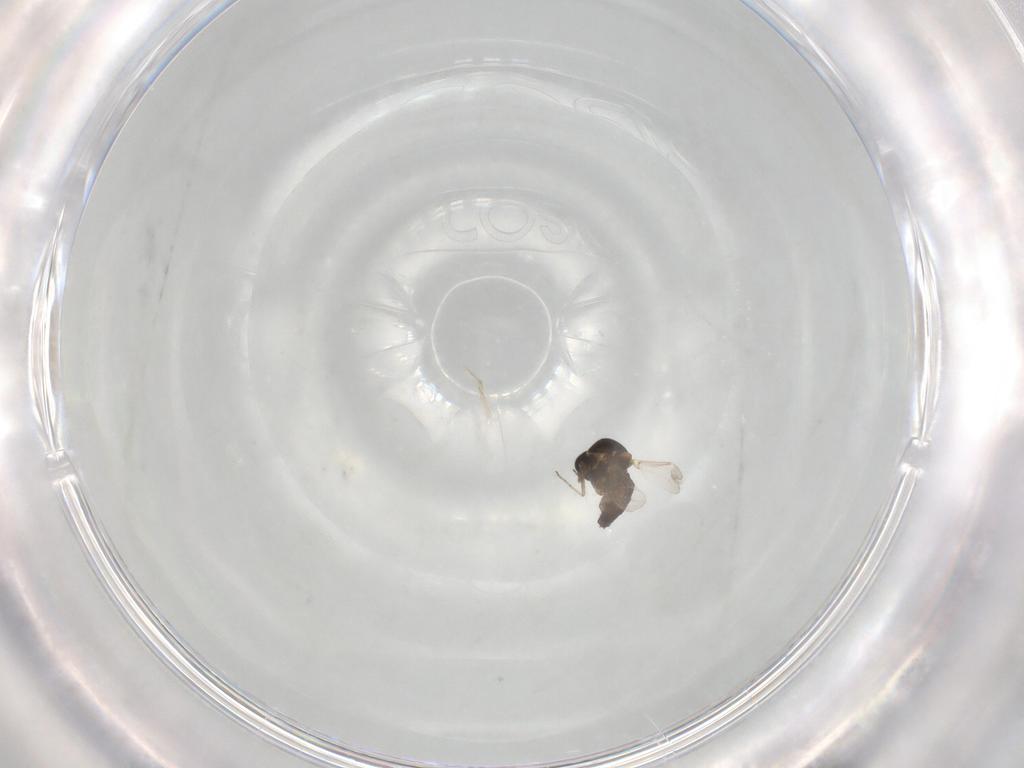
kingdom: Animalia
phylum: Arthropoda
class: Insecta
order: Diptera
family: Ceratopogonidae
